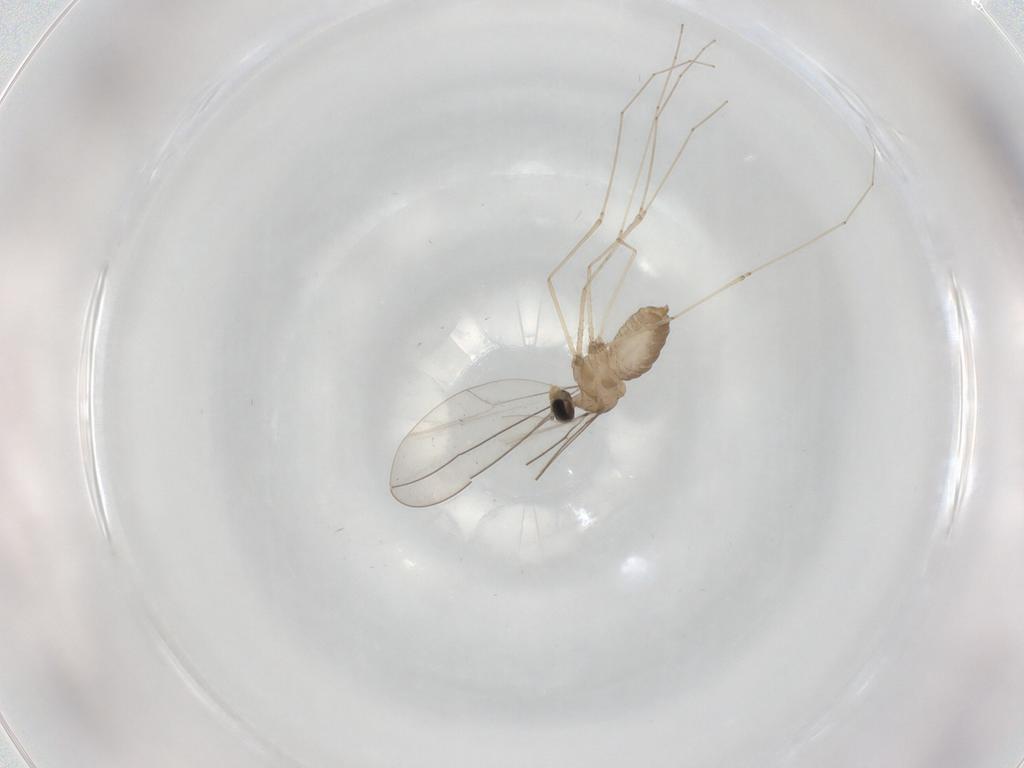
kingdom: Animalia
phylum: Arthropoda
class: Insecta
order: Diptera
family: Cecidomyiidae
